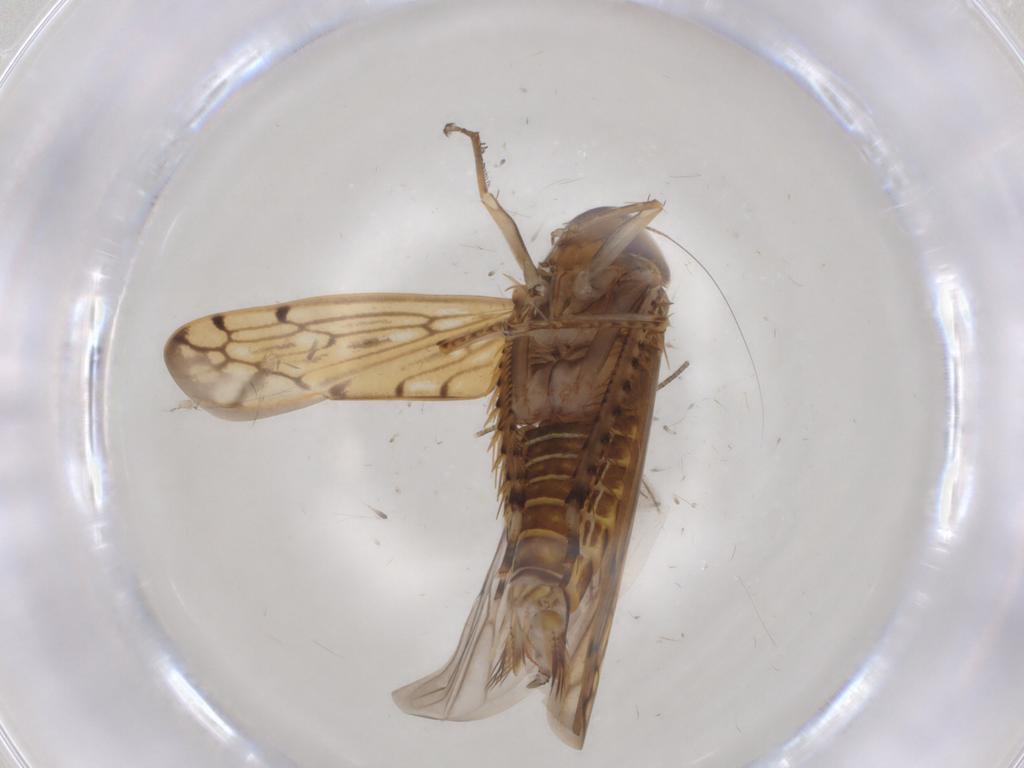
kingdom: Animalia
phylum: Arthropoda
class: Insecta
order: Hemiptera
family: Cicadellidae
